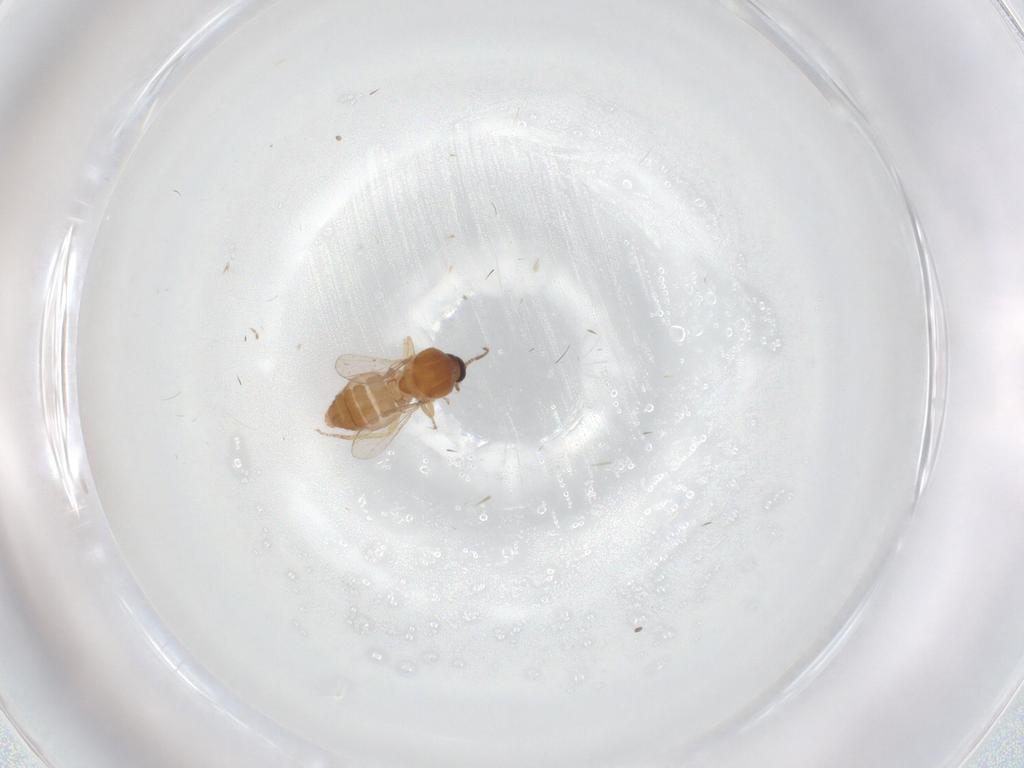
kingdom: Animalia
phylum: Arthropoda
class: Insecta
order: Diptera
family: Ceratopogonidae
